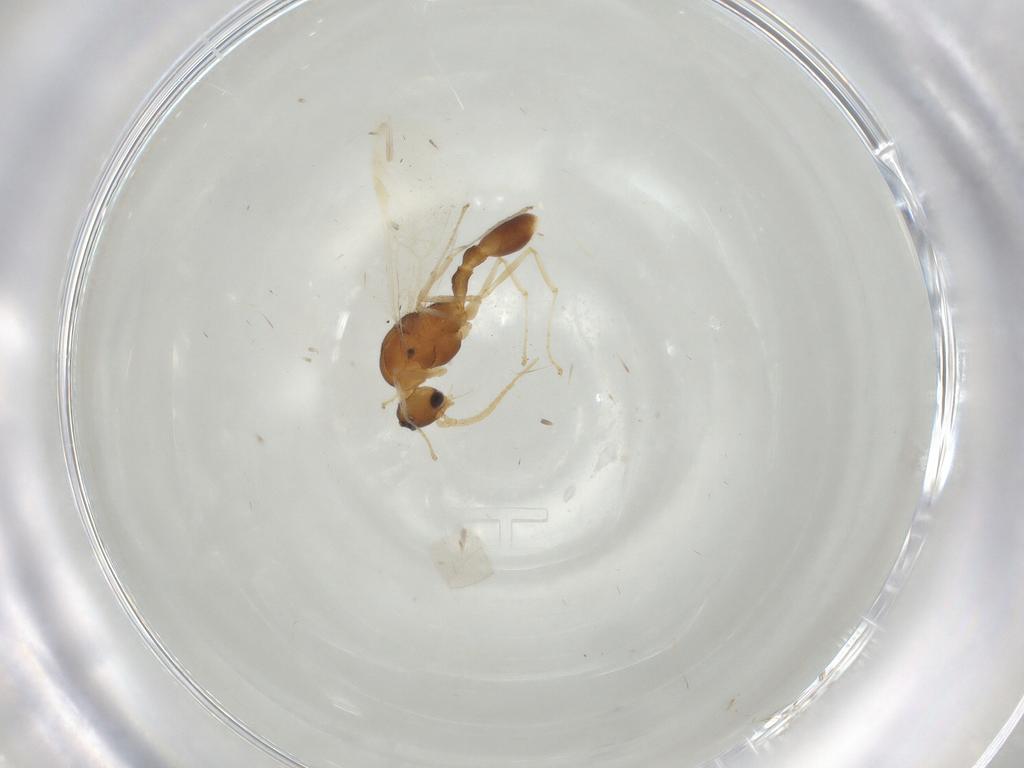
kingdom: Animalia
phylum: Arthropoda
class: Insecta
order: Hymenoptera
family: Formicidae
